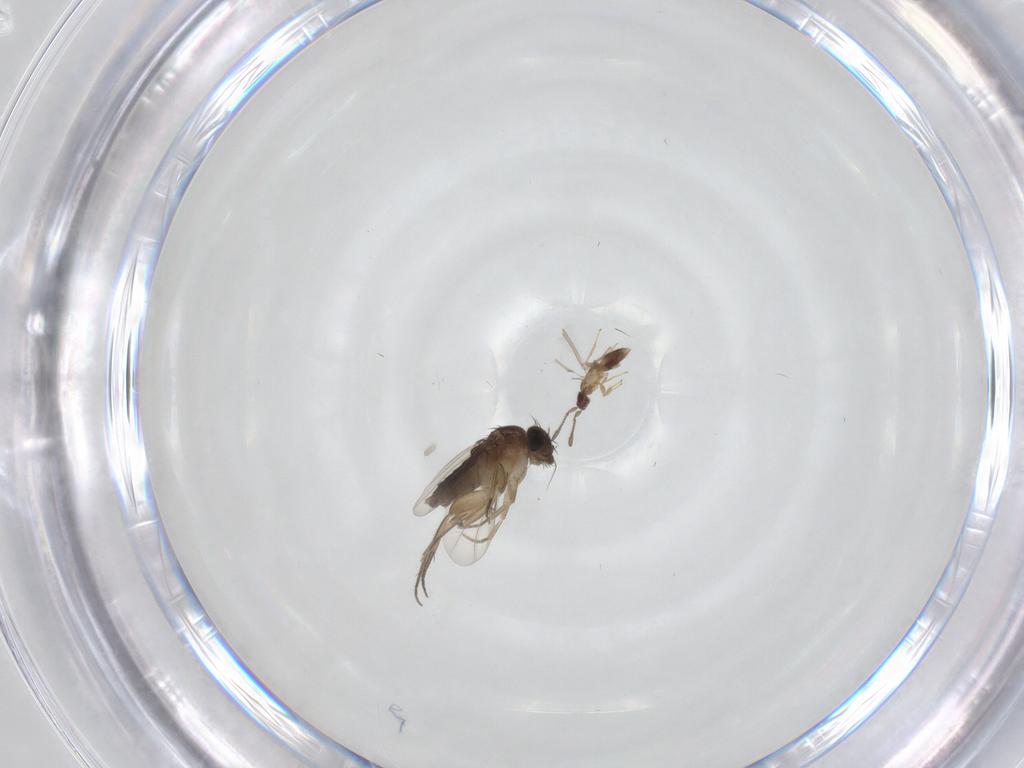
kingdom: Animalia
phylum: Arthropoda
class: Insecta
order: Diptera
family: Phoridae
